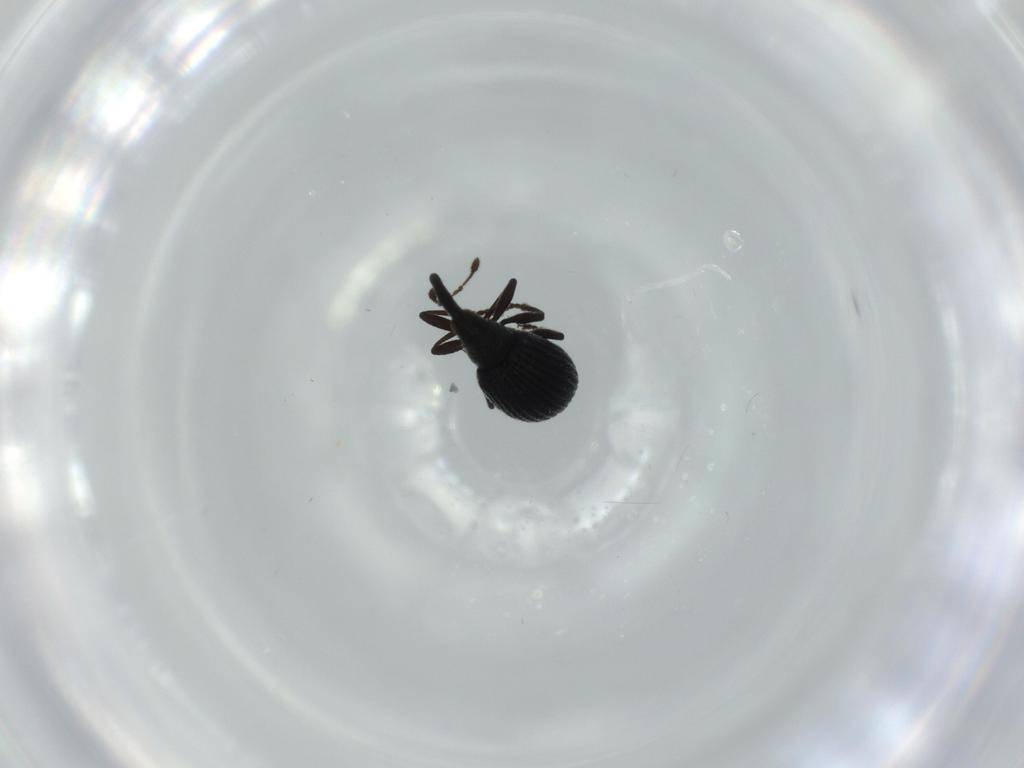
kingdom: Animalia
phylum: Arthropoda
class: Insecta
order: Coleoptera
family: Brentidae
